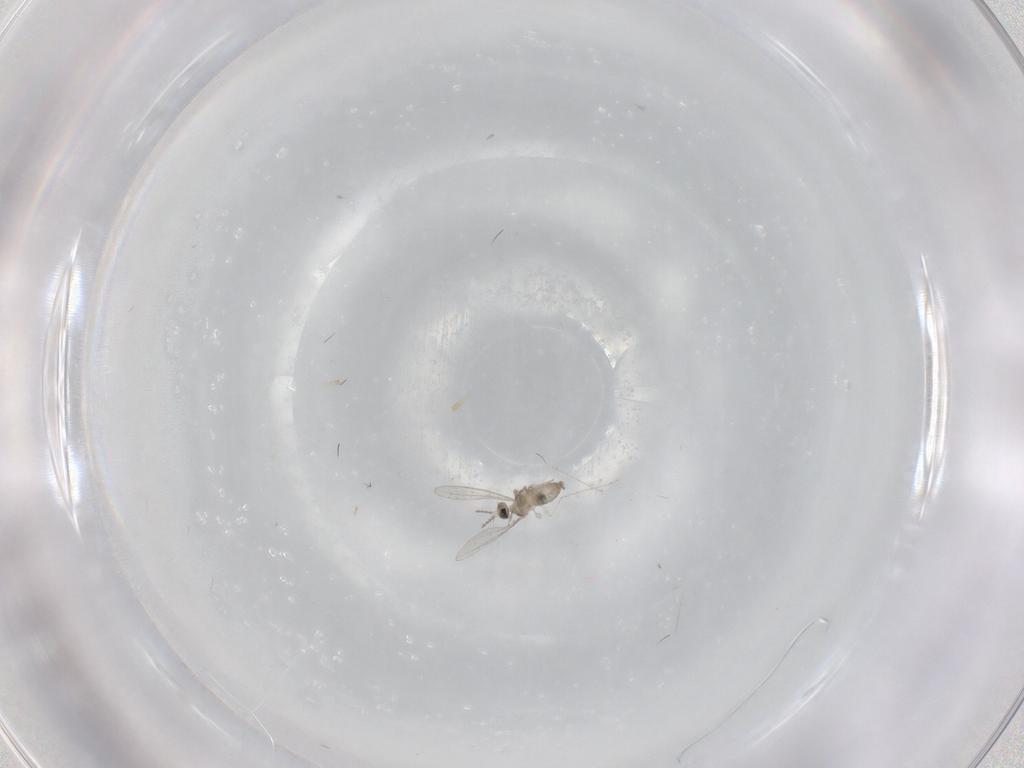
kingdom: Animalia
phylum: Arthropoda
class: Insecta
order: Diptera
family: Phoridae
